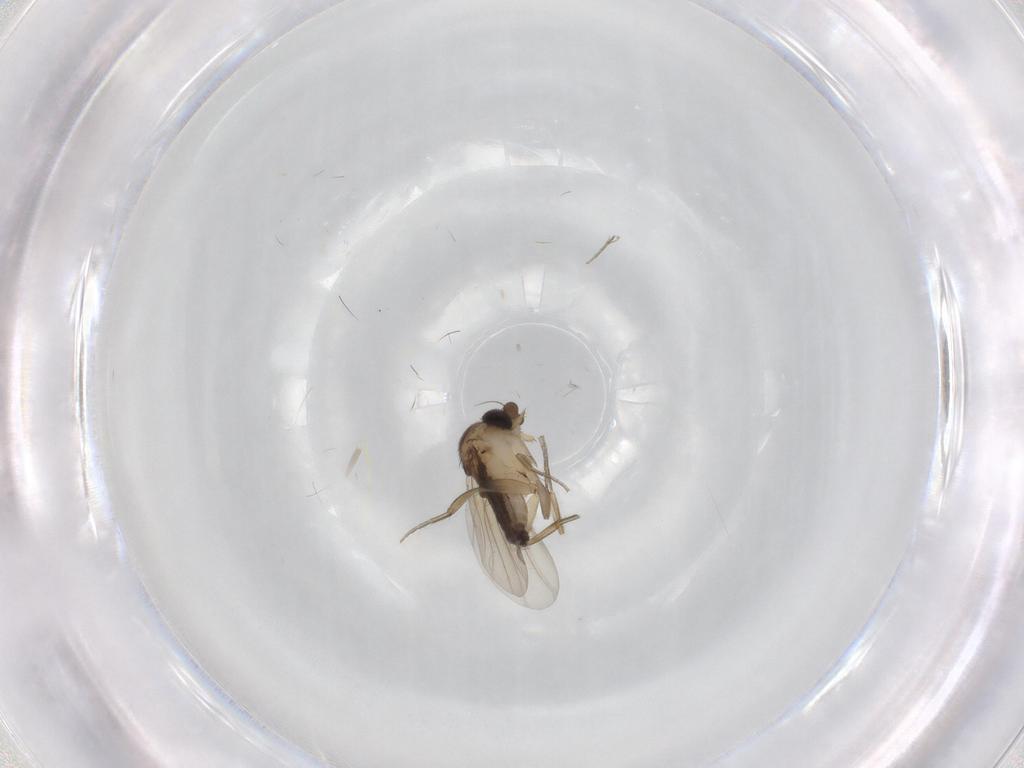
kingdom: Animalia
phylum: Arthropoda
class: Insecta
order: Diptera
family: Phoridae
